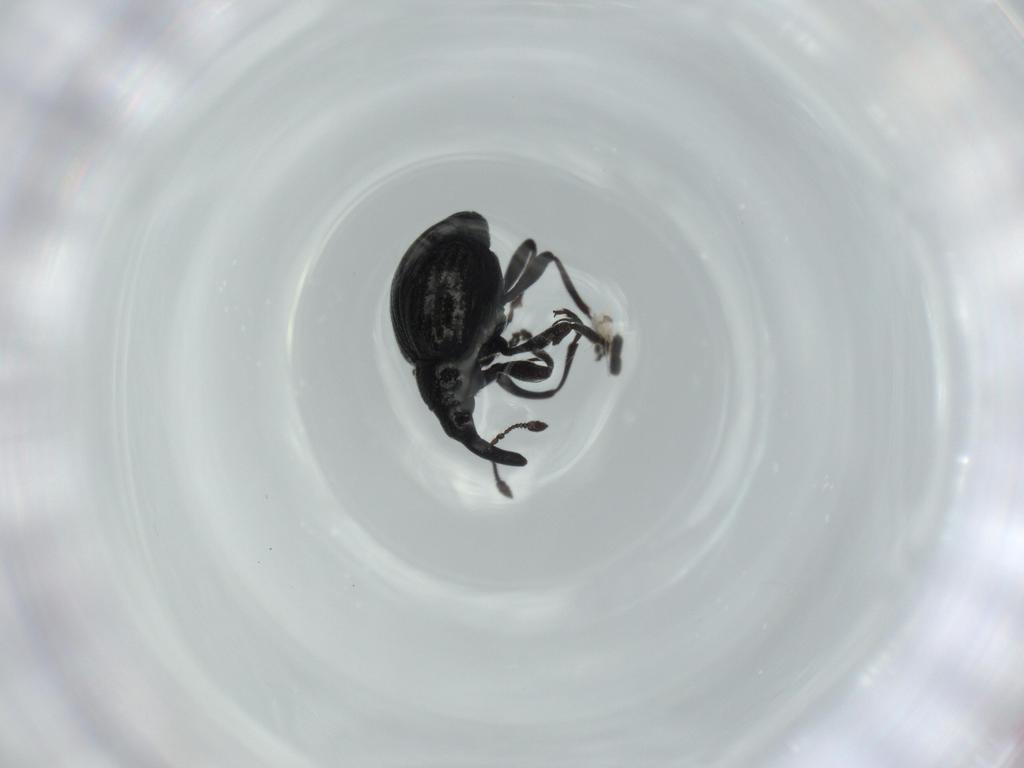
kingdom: Animalia
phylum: Arthropoda
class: Insecta
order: Coleoptera
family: Brentidae
